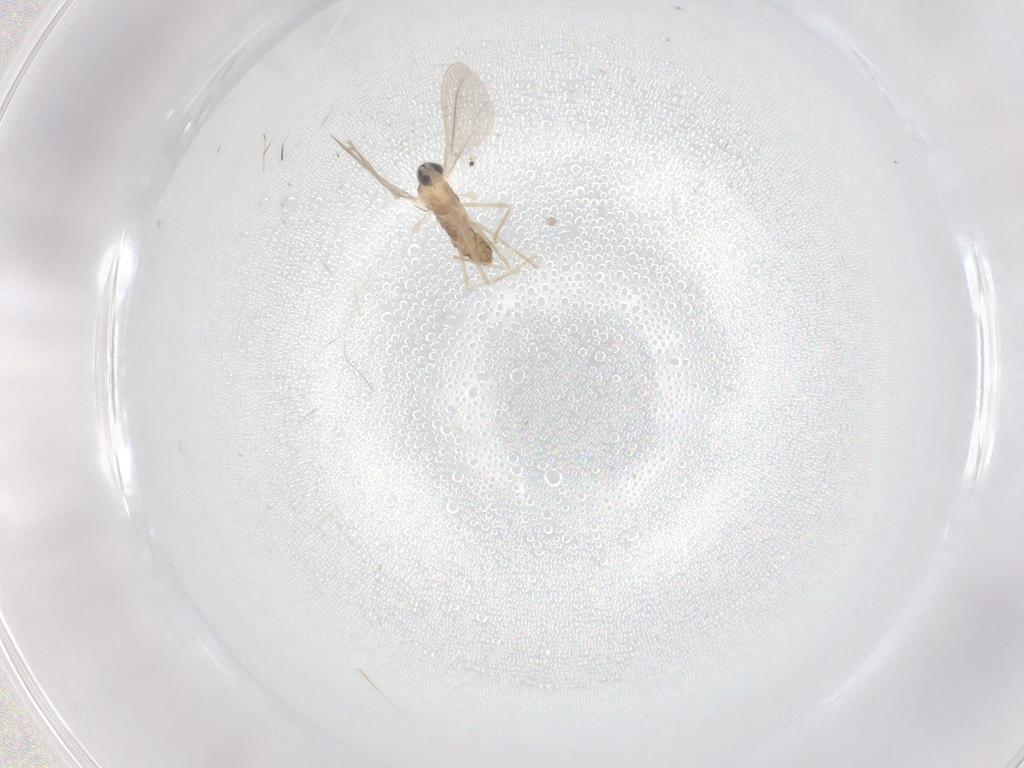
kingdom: Animalia
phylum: Arthropoda
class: Insecta
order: Diptera
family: Cecidomyiidae
